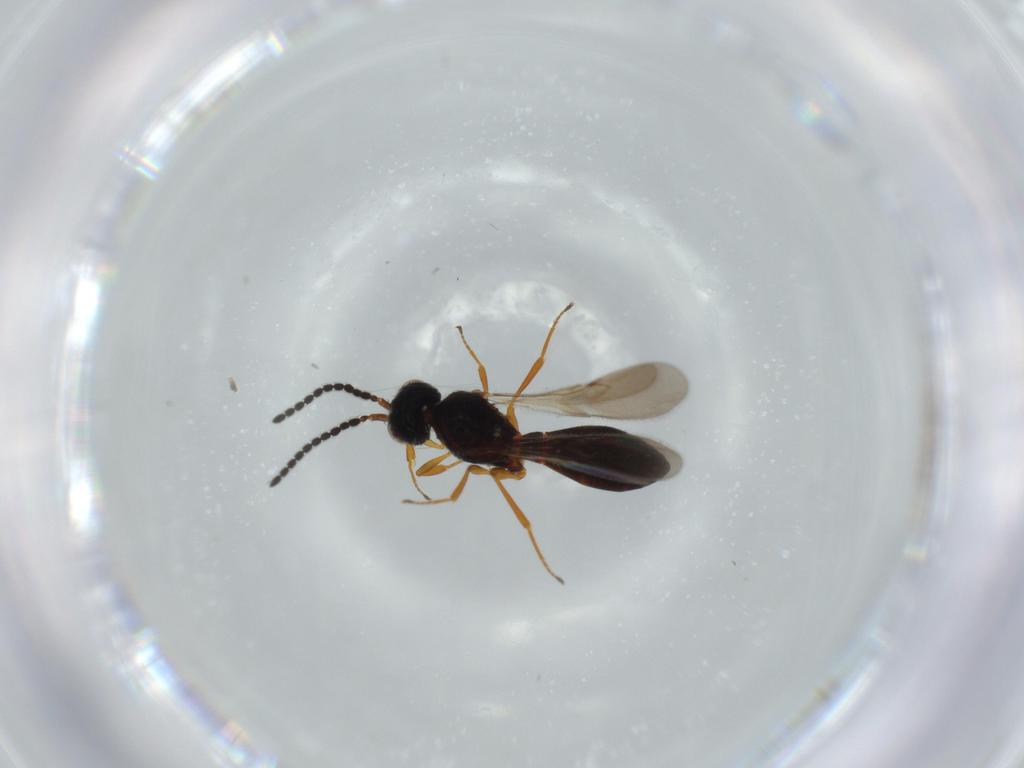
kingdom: Animalia
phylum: Arthropoda
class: Insecta
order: Hymenoptera
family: Scelionidae
